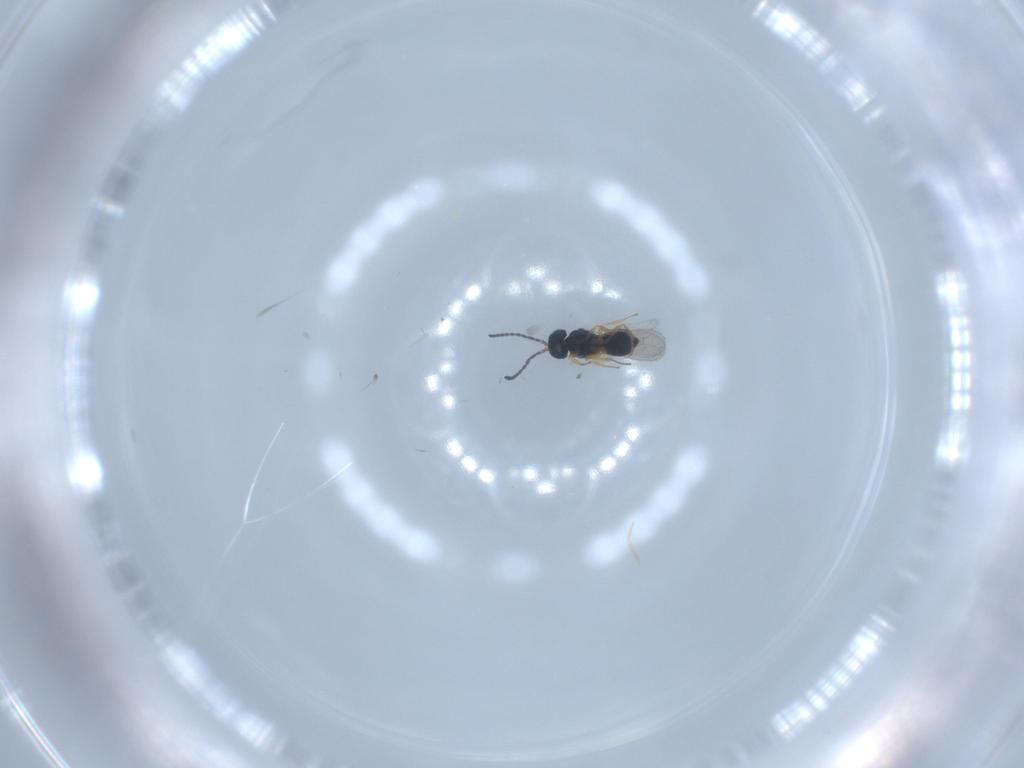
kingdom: Animalia
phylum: Arthropoda
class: Insecta
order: Hymenoptera
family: Scelionidae
